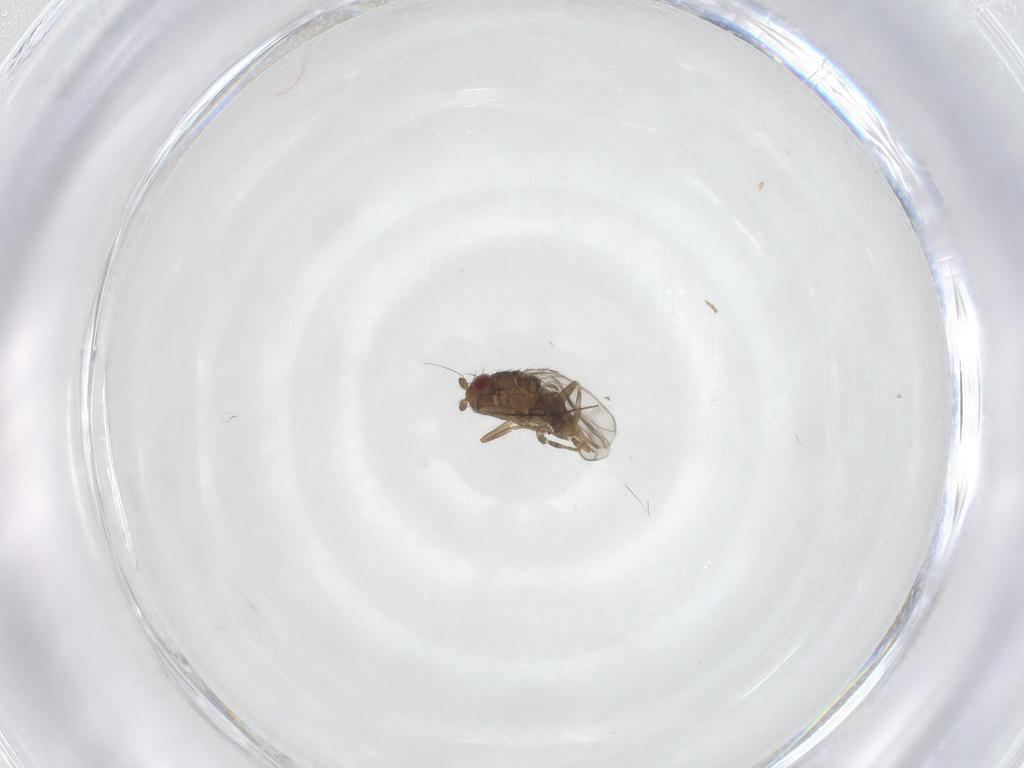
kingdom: Animalia
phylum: Arthropoda
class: Insecta
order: Diptera
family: Sphaeroceridae
